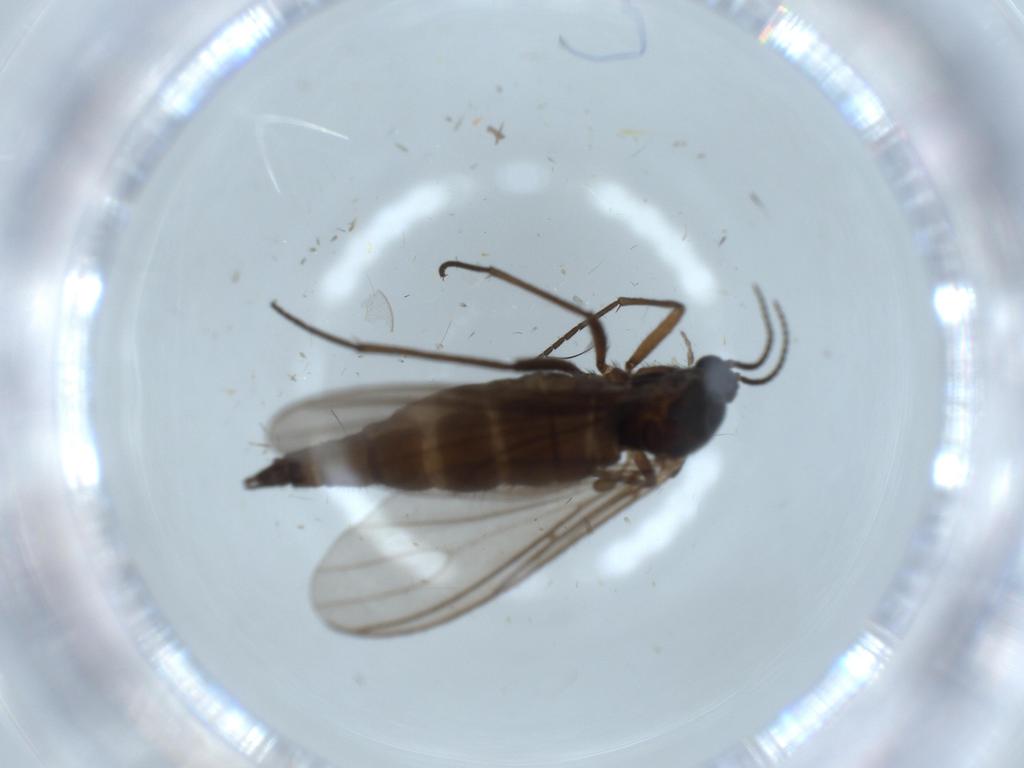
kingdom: Animalia
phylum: Arthropoda
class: Insecta
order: Diptera
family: Sciaridae
